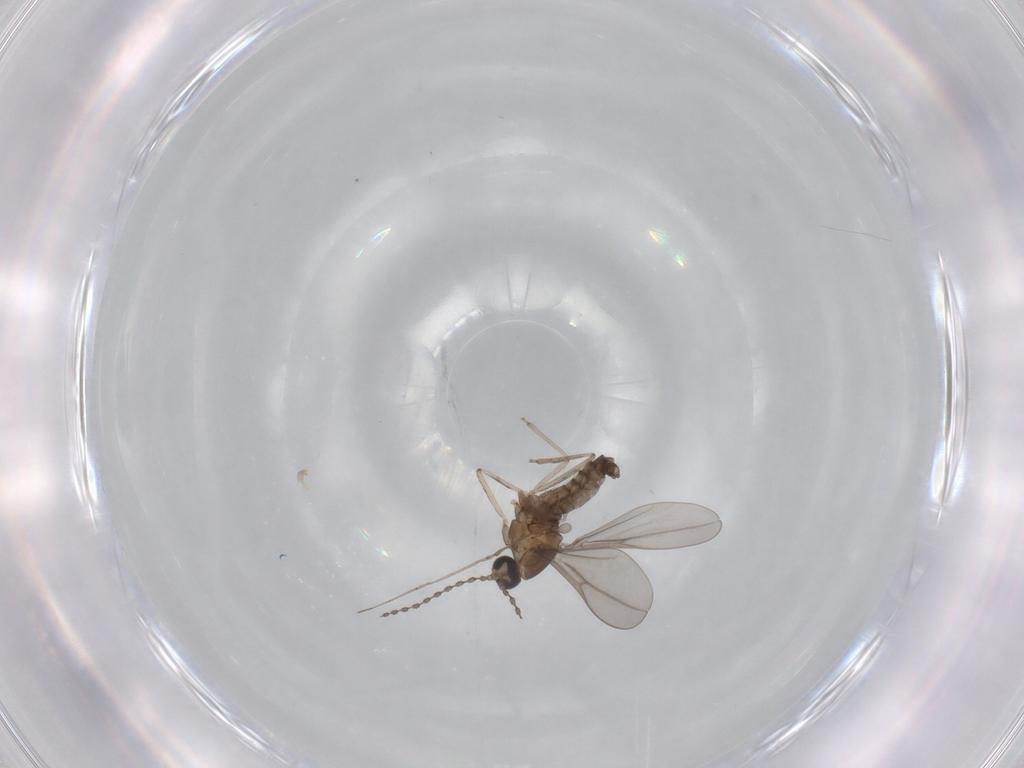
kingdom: Animalia
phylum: Arthropoda
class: Insecta
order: Diptera
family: Cecidomyiidae
